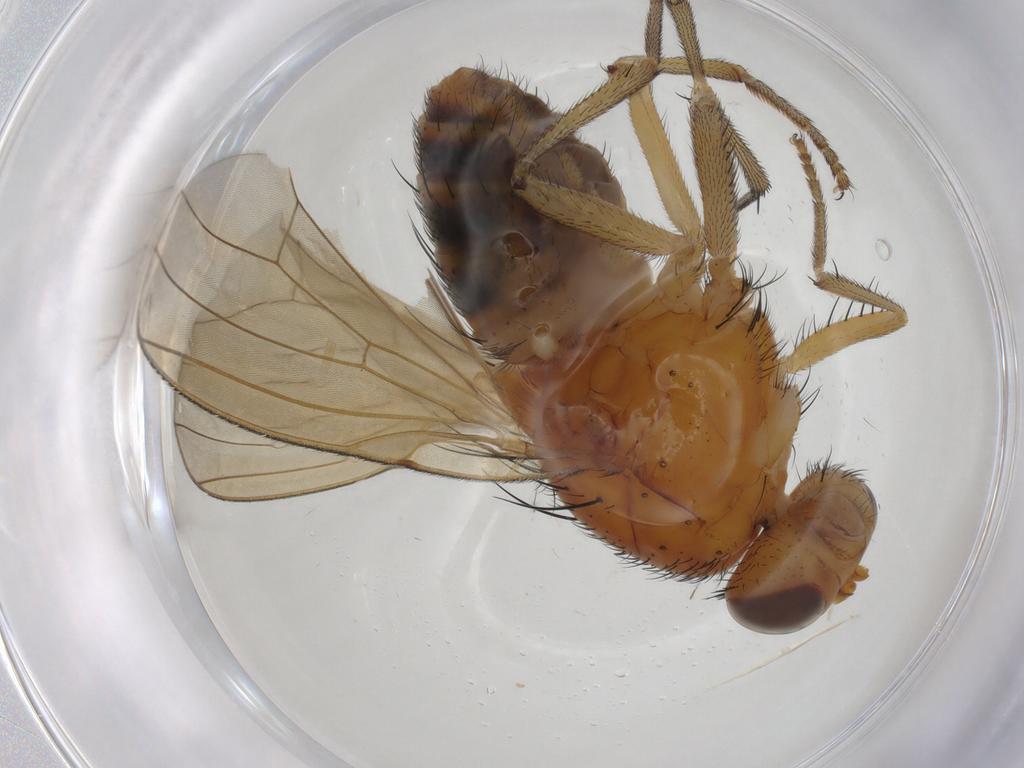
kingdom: Animalia
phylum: Arthropoda
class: Insecta
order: Diptera
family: Lauxaniidae
